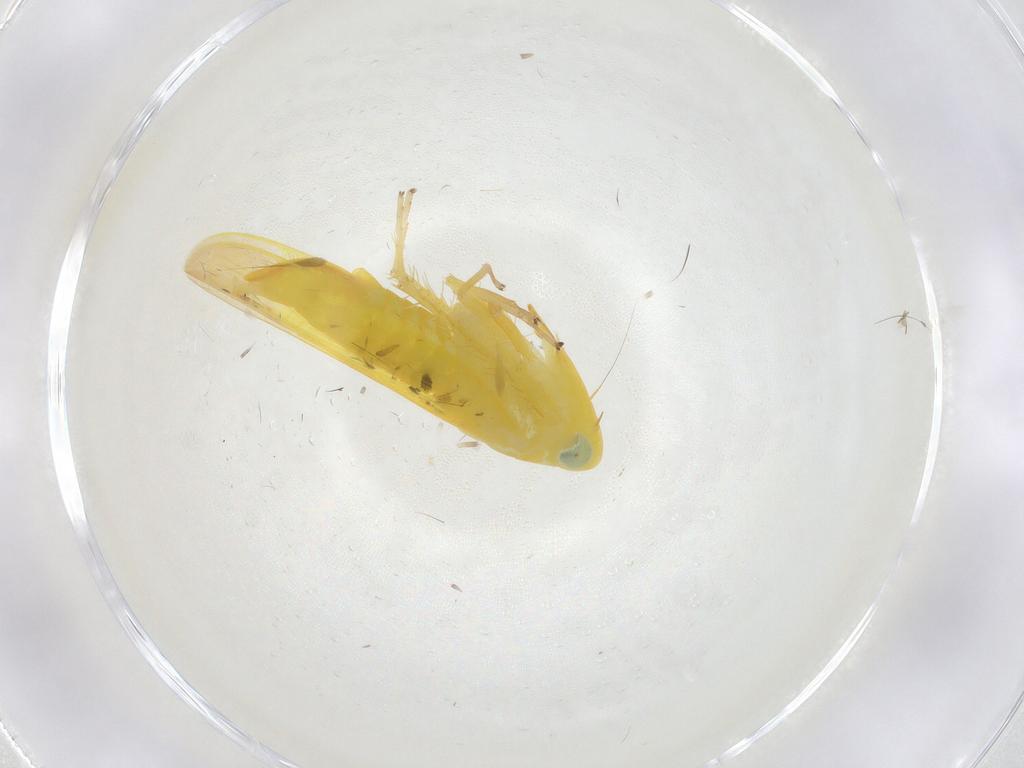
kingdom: Animalia
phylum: Arthropoda
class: Insecta
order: Hemiptera
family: Cicadellidae
